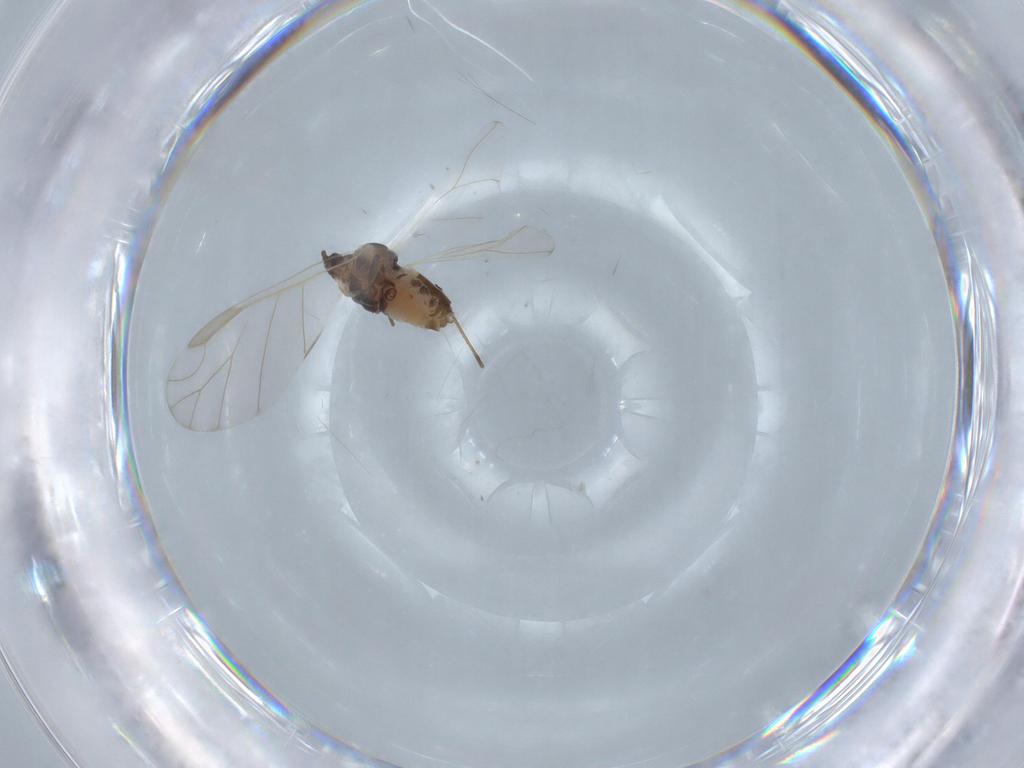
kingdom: Animalia
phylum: Arthropoda
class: Insecta
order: Hemiptera
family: Aphididae
